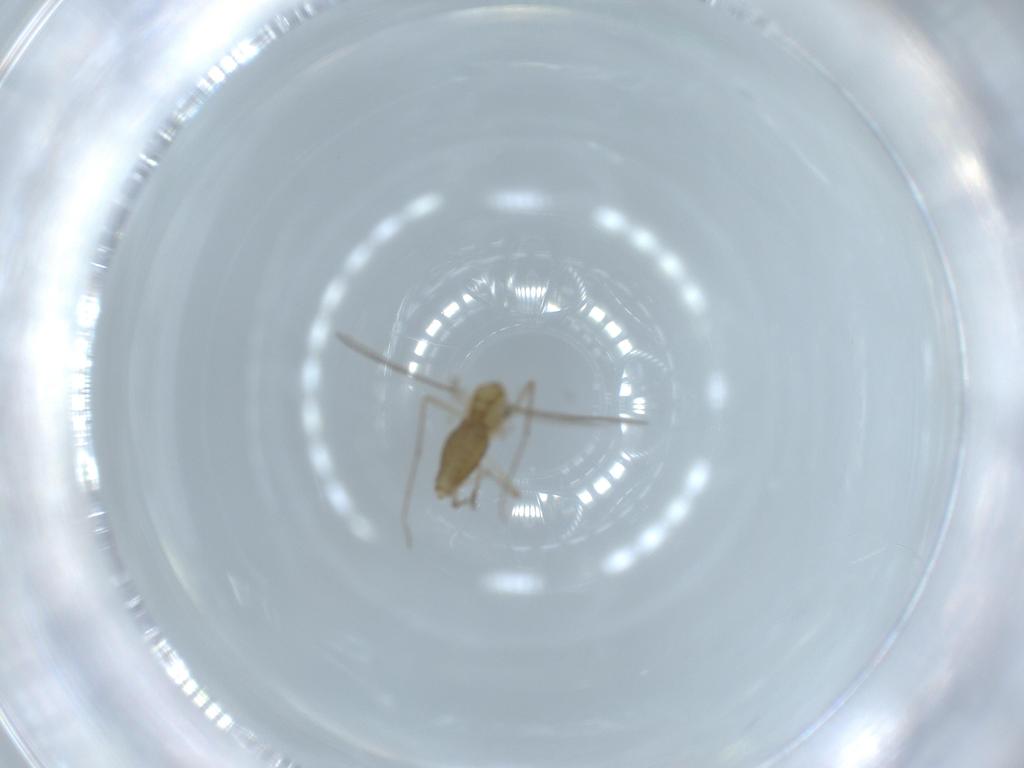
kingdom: Animalia
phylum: Arthropoda
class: Insecta
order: Diptera
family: Chironomidae
